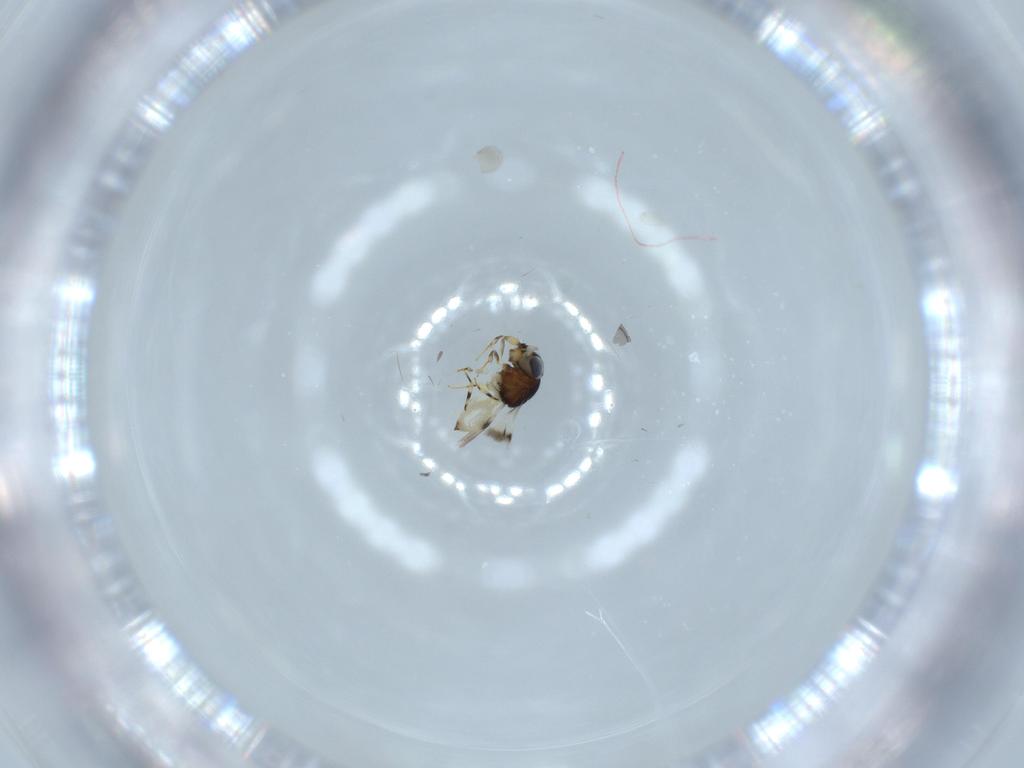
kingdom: Animalia
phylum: Arthropoda
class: Insecta
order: Hymenoptera
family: Scelionidae
